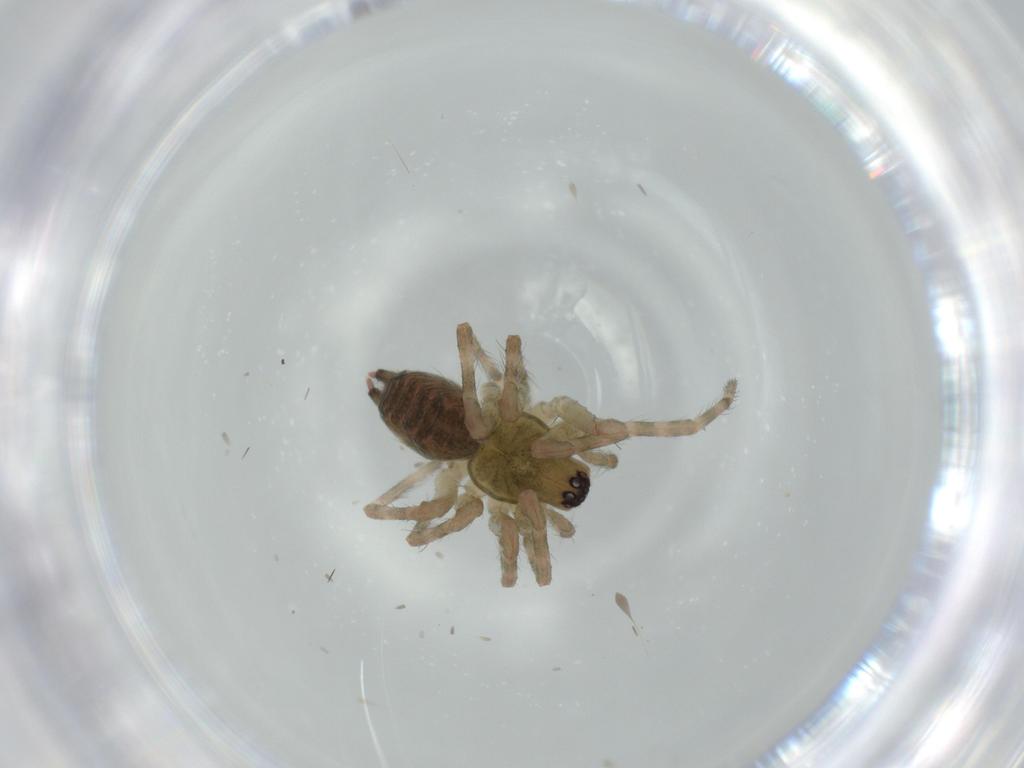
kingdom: Animalia
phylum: Arthropoda
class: Arachnida
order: Araneae
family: Agelenidae
